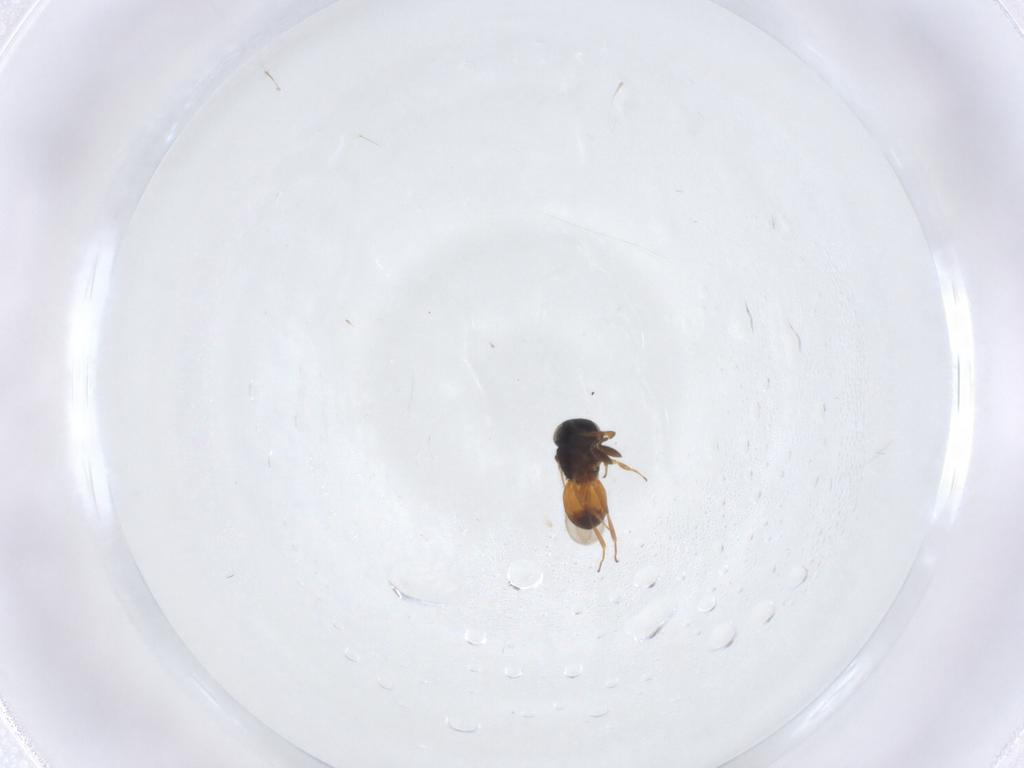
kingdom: Animalia
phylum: Arthropoda
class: Insecta
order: Hymenoptera
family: Scelionidae
